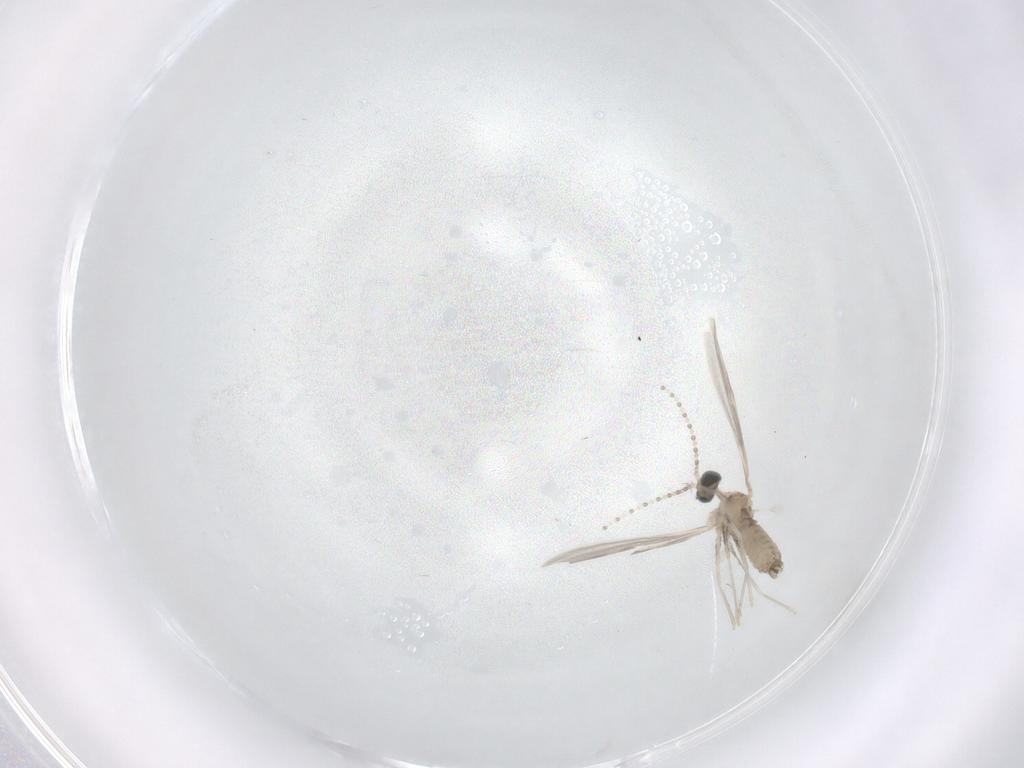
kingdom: Animalia
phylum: Arthropoda
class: Insecta
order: Diptera
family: Cecidomyiidae
